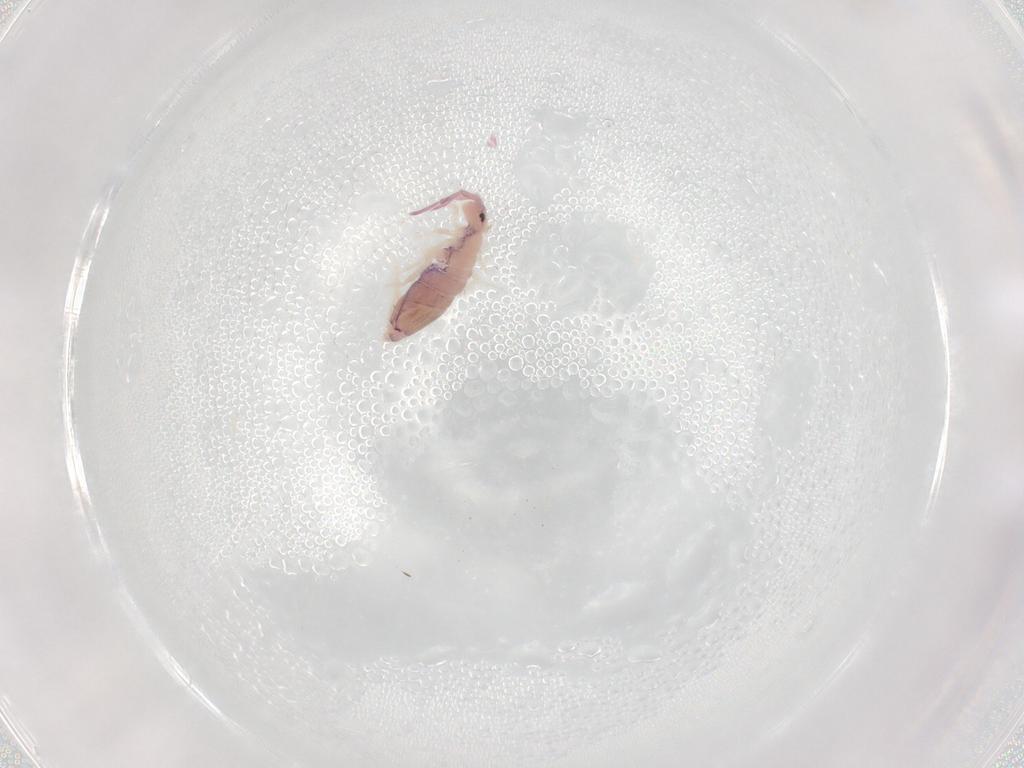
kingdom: Animalia
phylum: Arthropoda
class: Collembola
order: Entomobryomorpha
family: Entomobryidae
